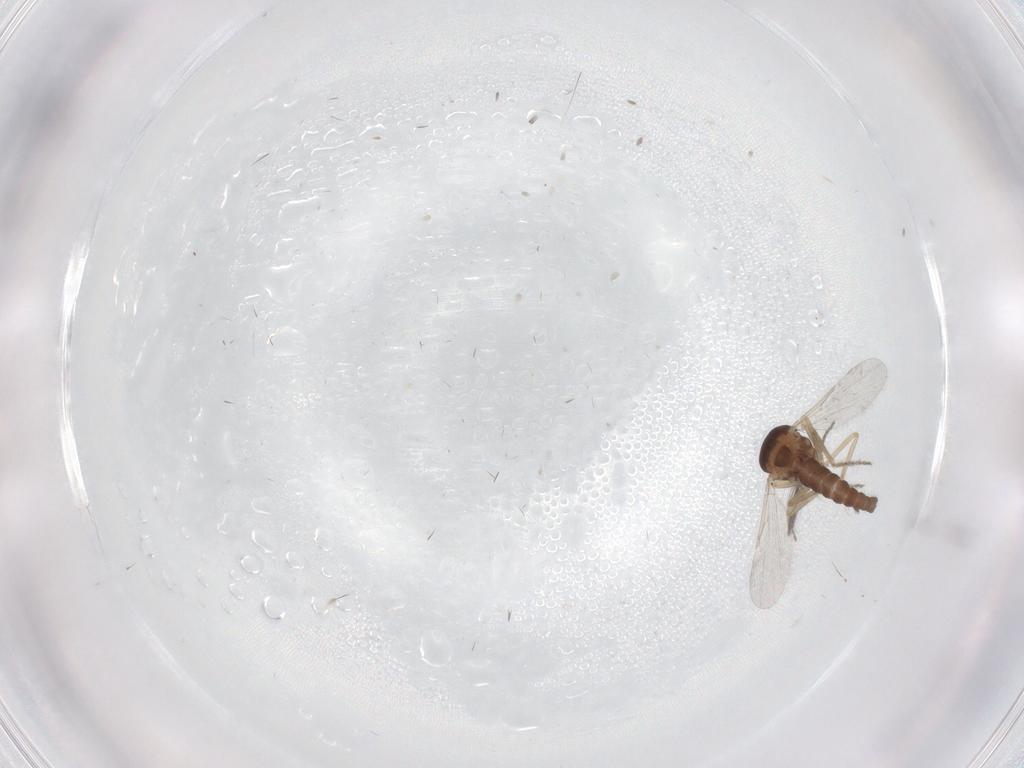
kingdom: Animalia
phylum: Arthropoda
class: Insecta
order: Diptera
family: Ceratopogonidae
